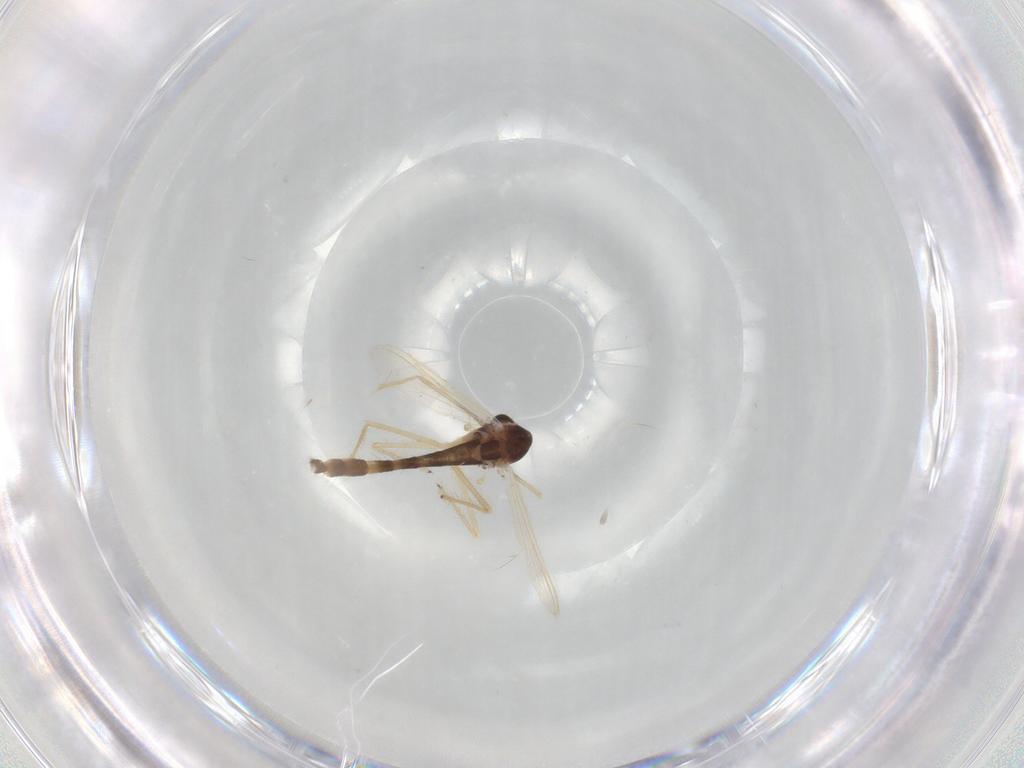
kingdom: Animalia
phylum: Arthropoda
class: Insecta
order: Diptera
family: Chironomidae
